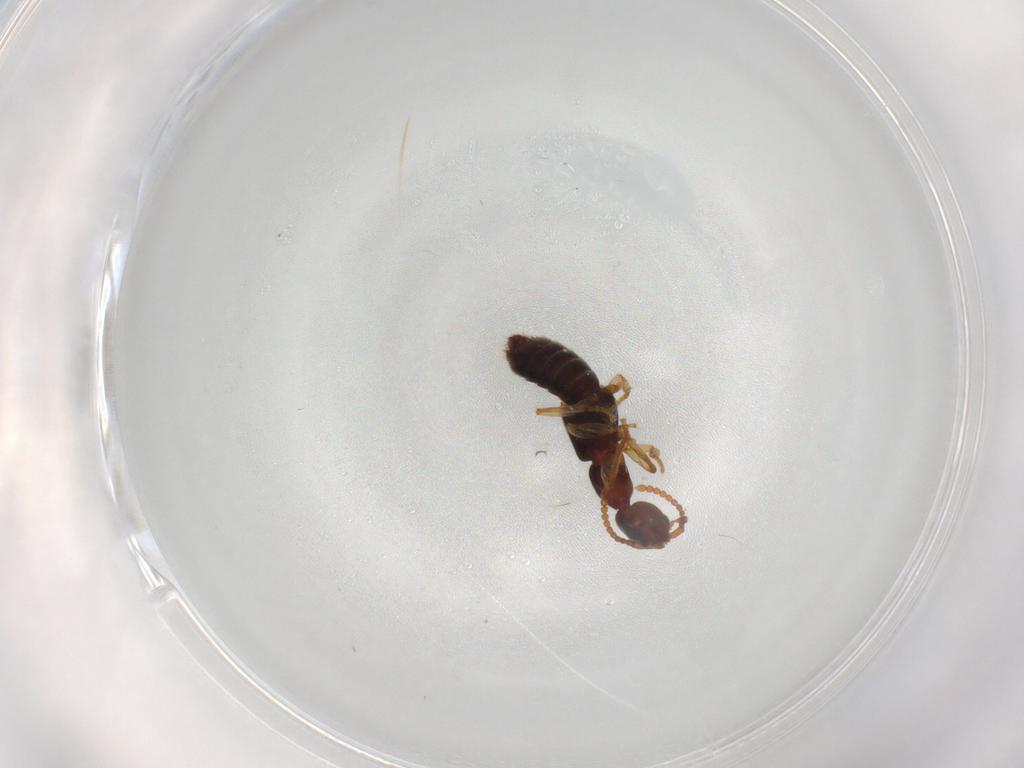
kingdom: Animalia
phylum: Arthropoda
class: Insecta
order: Coleoptera
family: Staphylinidae
